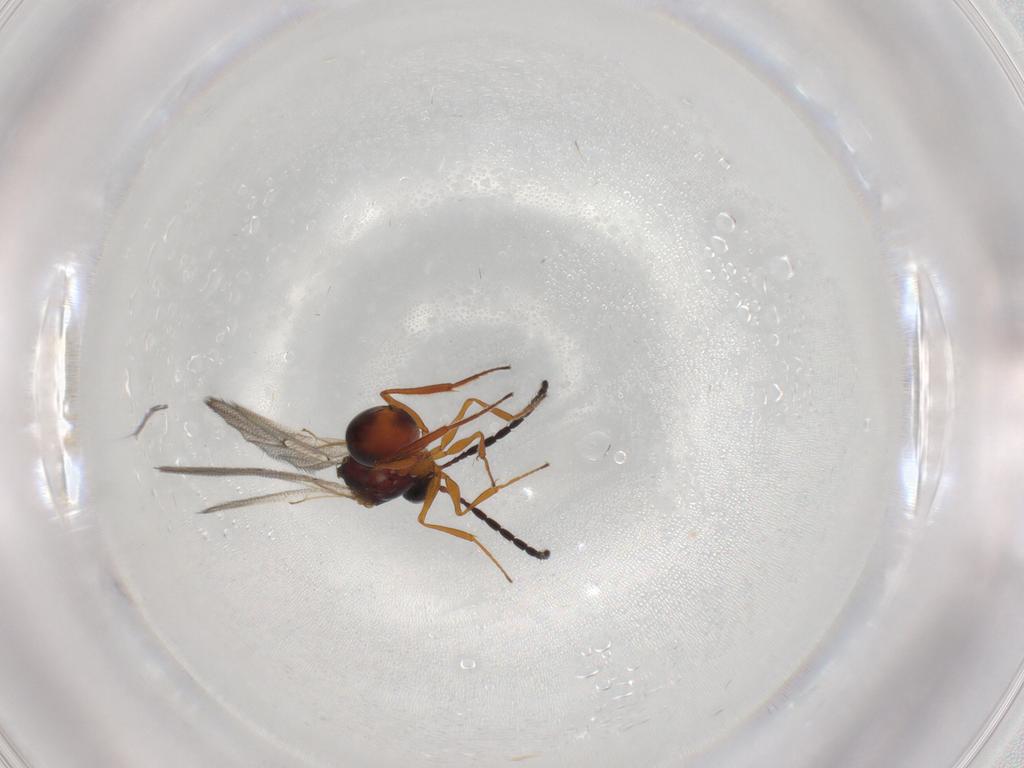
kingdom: Animalia
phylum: Arthropoda
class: Insecta
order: Hymenoptera
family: Figitidae
